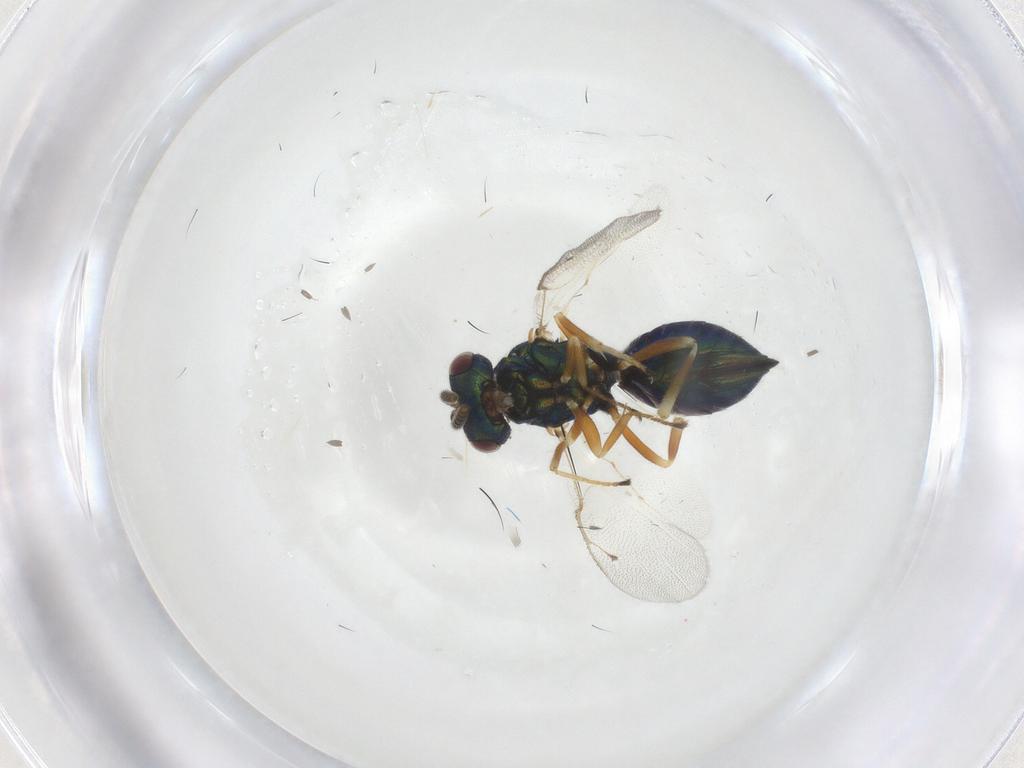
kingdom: Animalia
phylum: Arthropoda
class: Insecta
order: Hymenoptera
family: Pteromalidae
